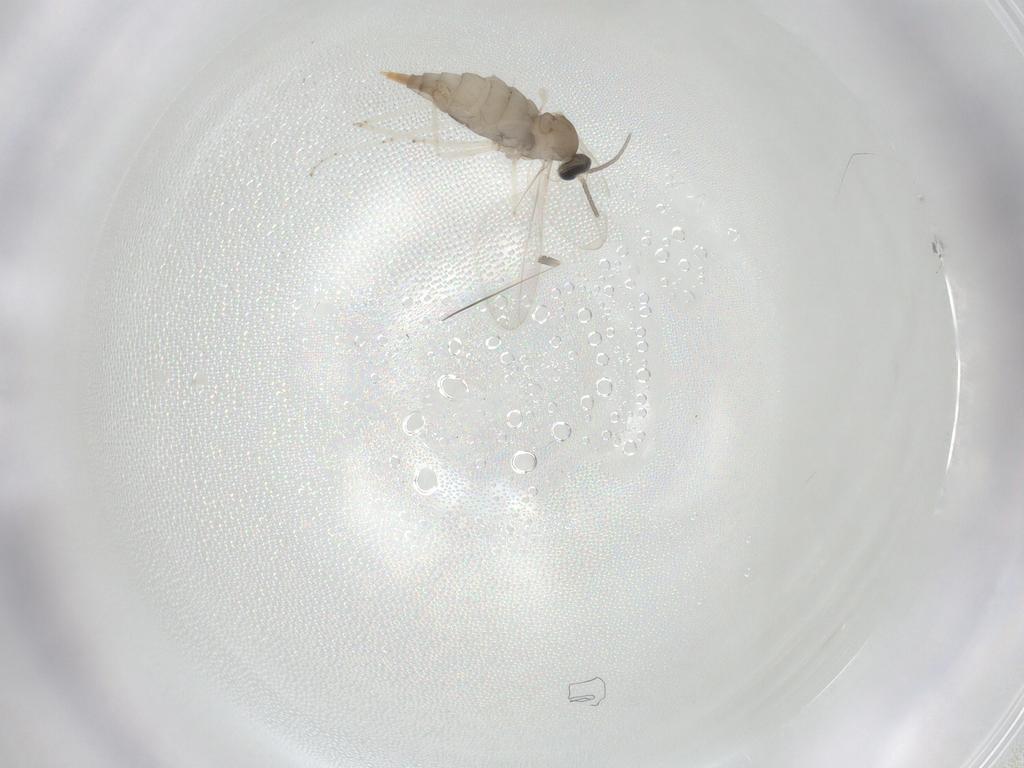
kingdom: Animalia
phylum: Arthropoda
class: Insecta
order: Diptera
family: Cecidomyiidae
